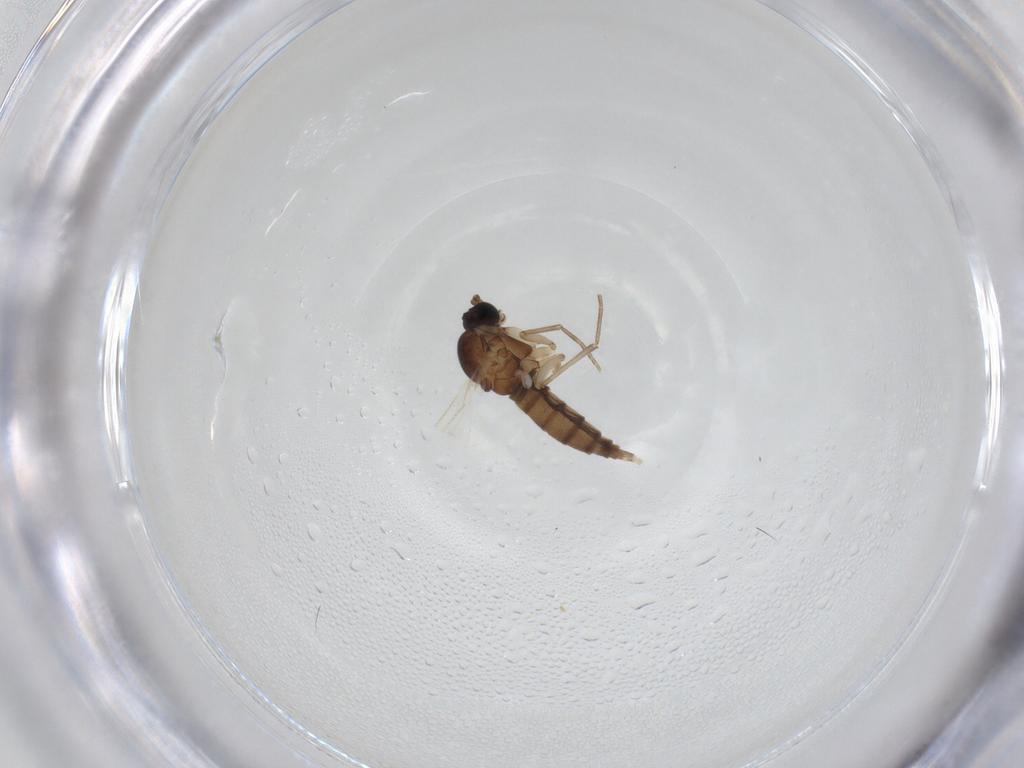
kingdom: Animalia
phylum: Arthropoda
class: Insecta
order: Diptera
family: Sciaridae
